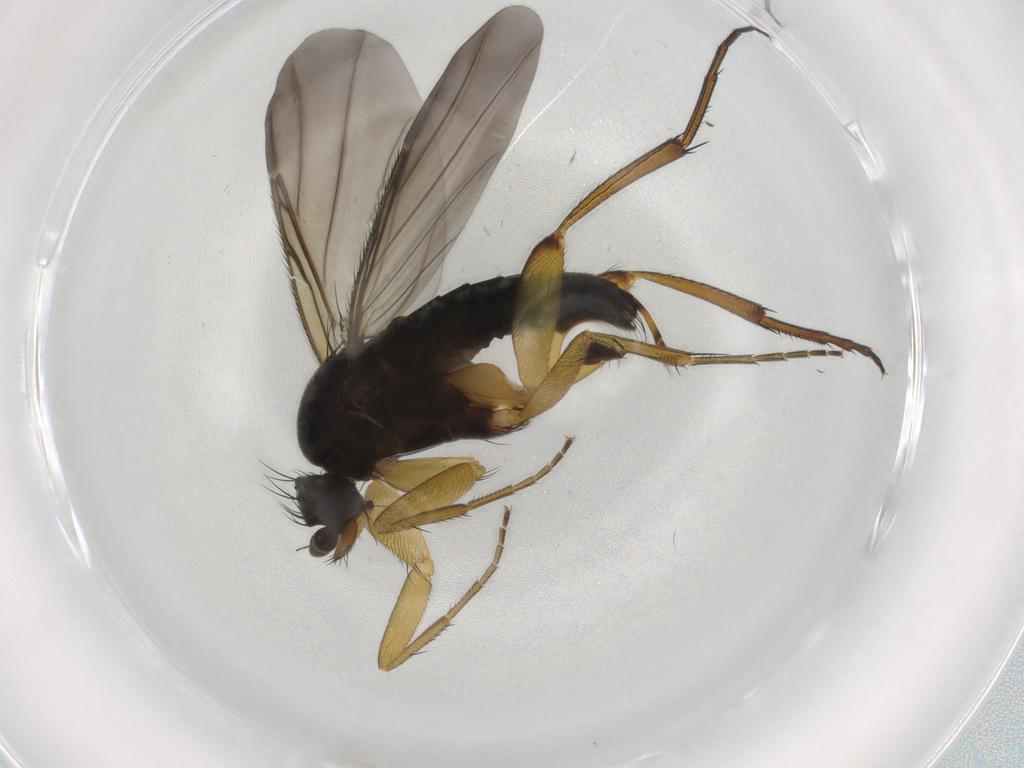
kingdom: Animalia
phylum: Arthropoda
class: Insecta
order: Diptera
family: Phoridae
